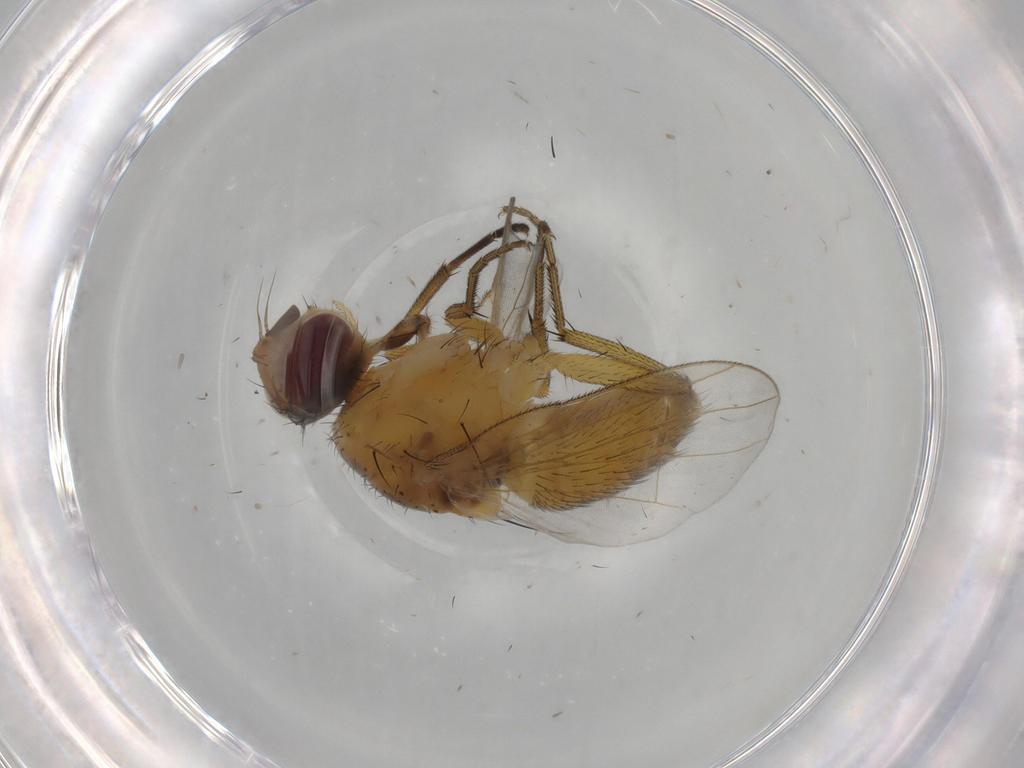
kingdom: Animalia
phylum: Arthropoda
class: Insecta
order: Diptera
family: Muscidae
